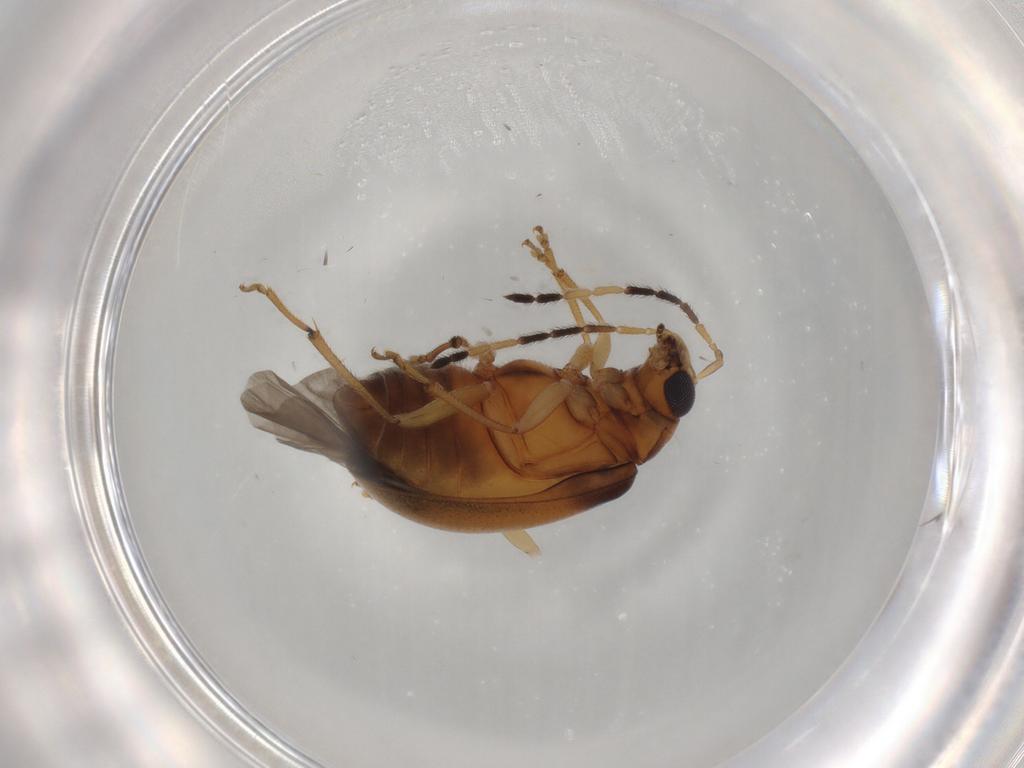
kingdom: Animalia
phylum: Arthropoda
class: Insecta
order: Coleoptera
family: Chrysomelidae
